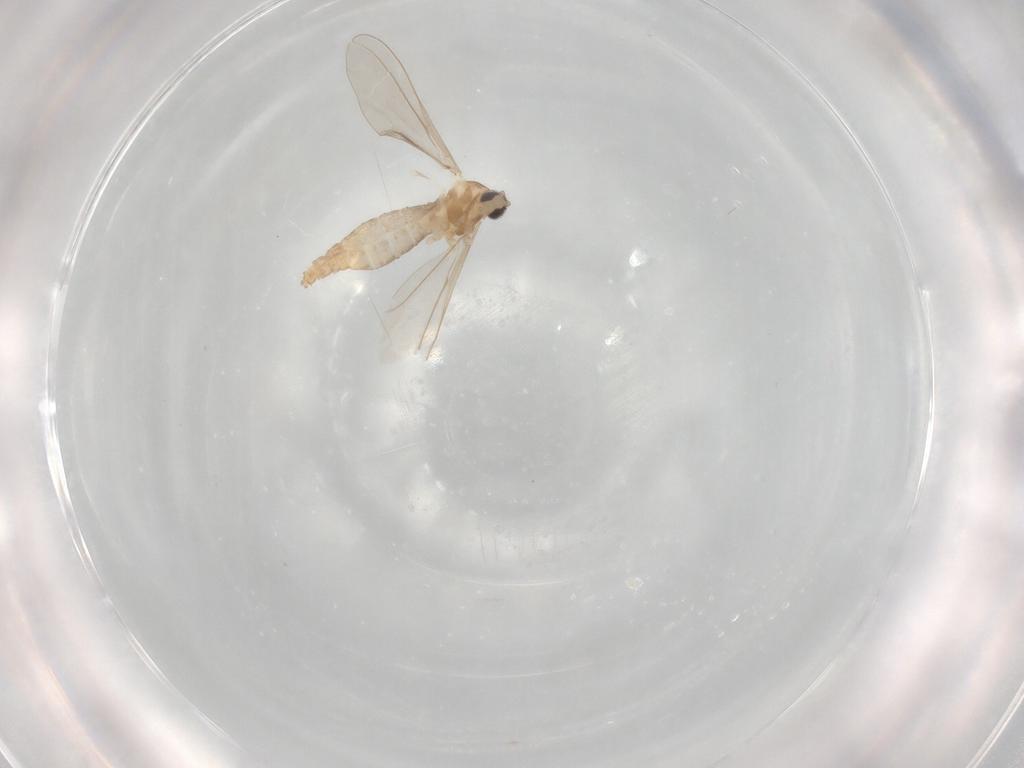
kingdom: Animalia
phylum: Arthropoda
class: Insecta
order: Diptera
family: Cecidomyiidae
